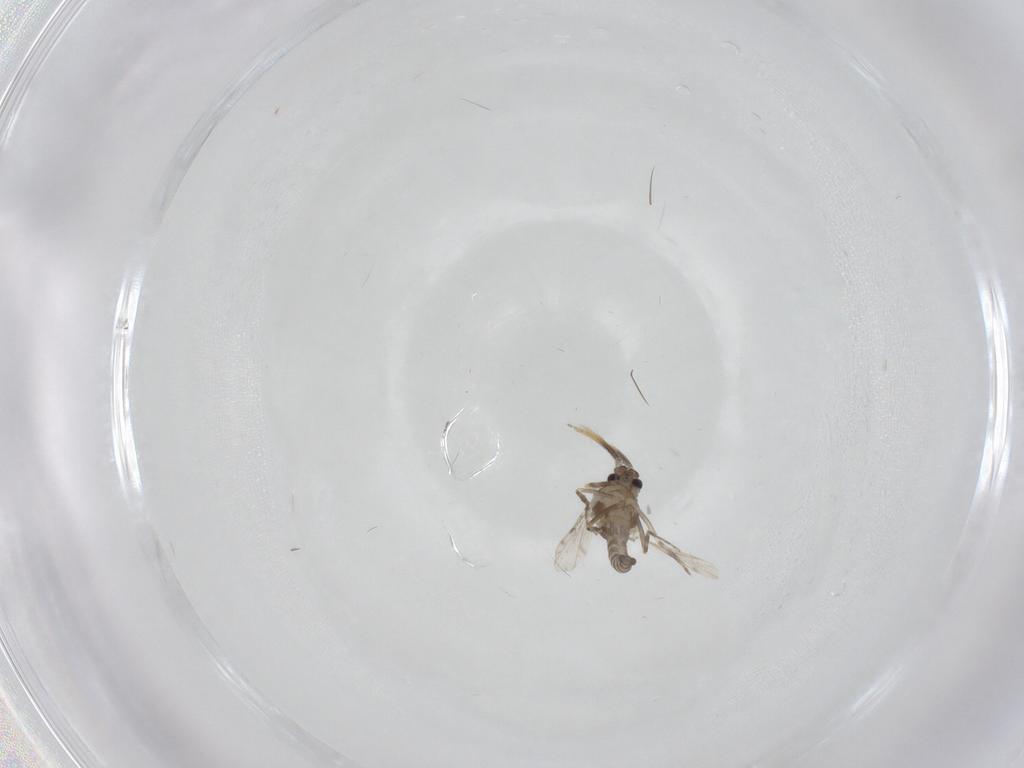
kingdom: Animalia
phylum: Arthropoda
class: Insecta
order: Diptera
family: Ceratopogonidae
